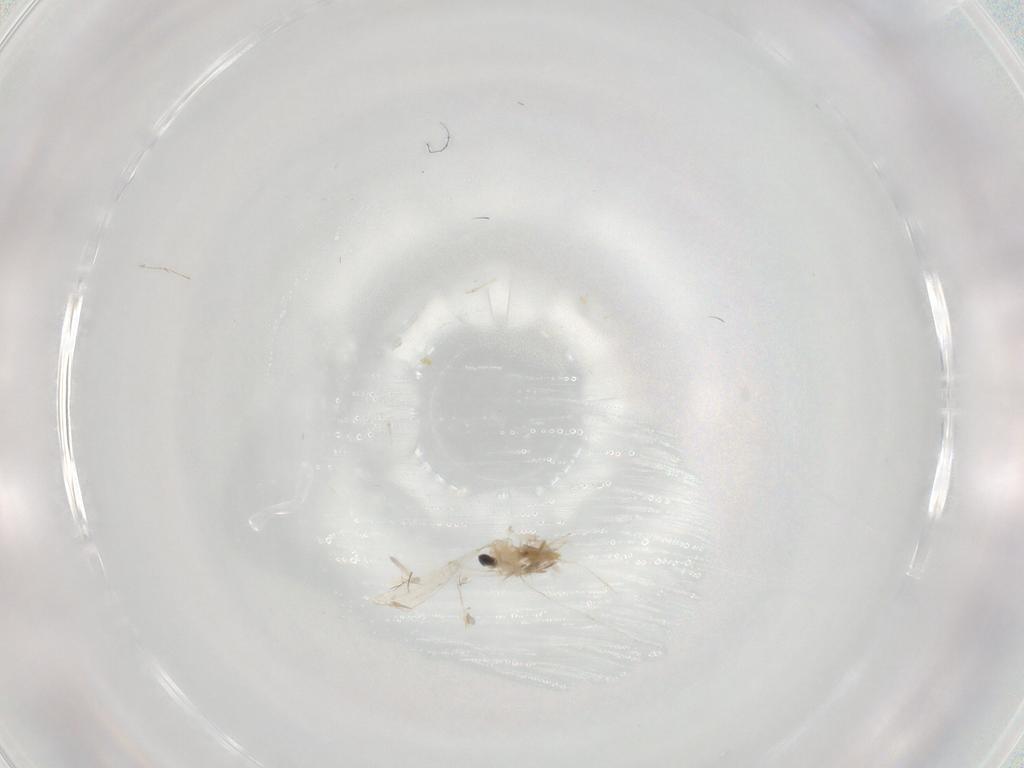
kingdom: Animalia
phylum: Arthropoda
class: Insecta
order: Diptera
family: Cecidomyiidae
